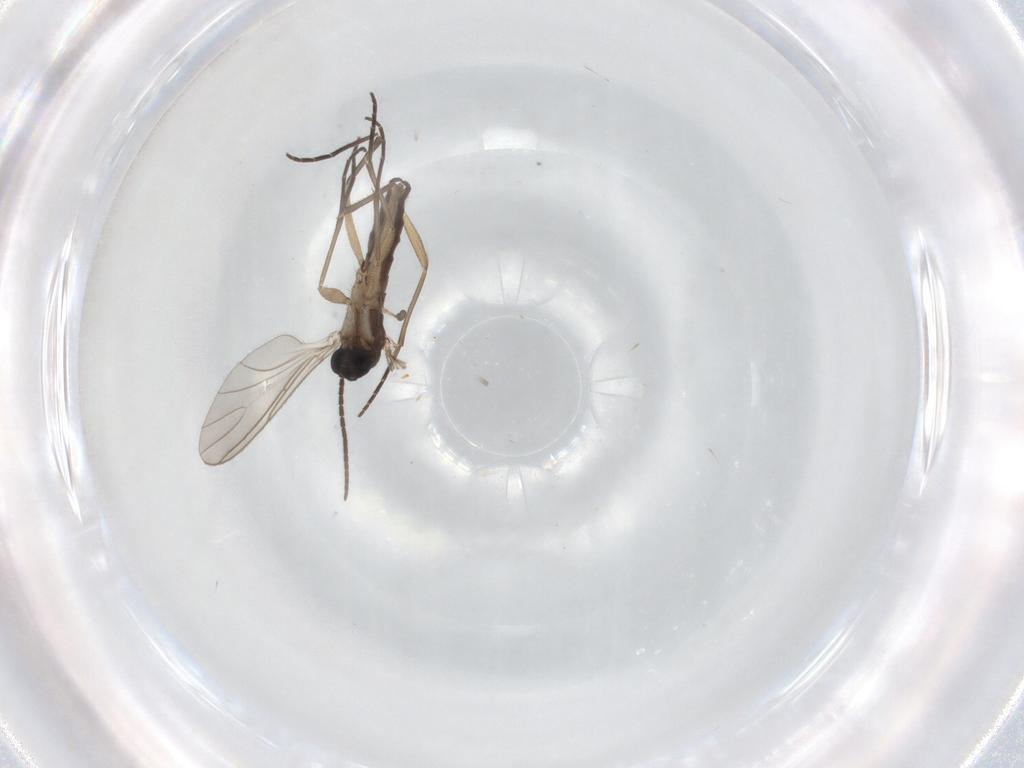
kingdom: Animalia
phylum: Arthropoda
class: Insecta
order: Diptera
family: Sciaridae
